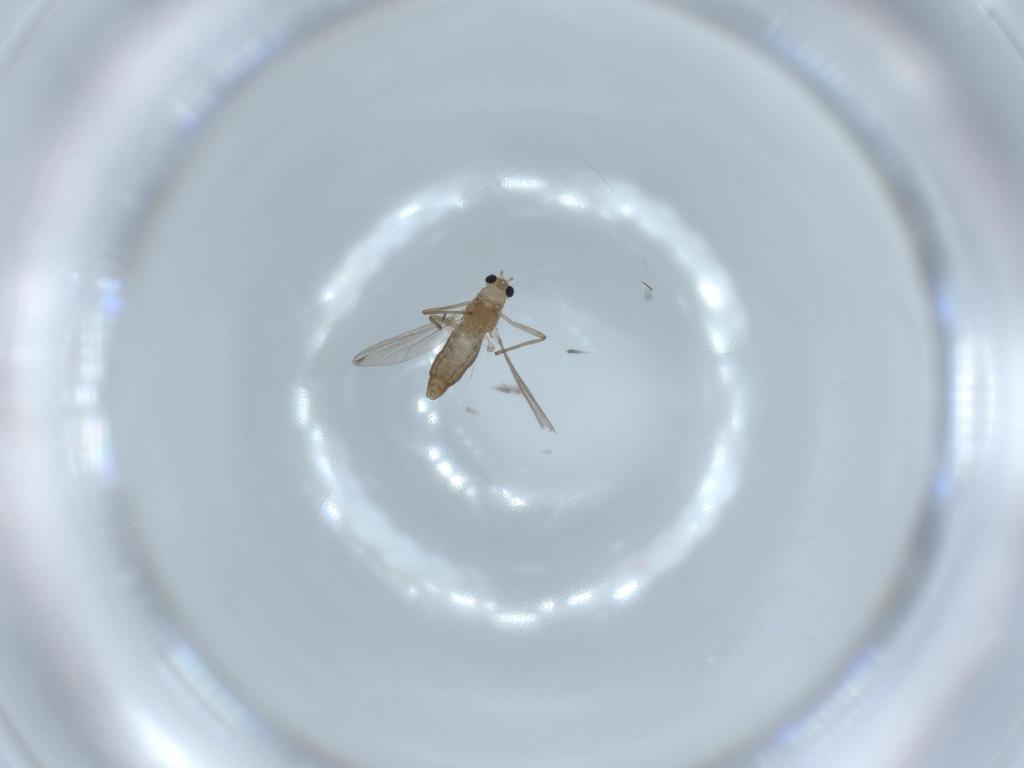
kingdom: Animalia
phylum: Arthropoda
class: Insecta
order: Diptera
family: Chironomidae
